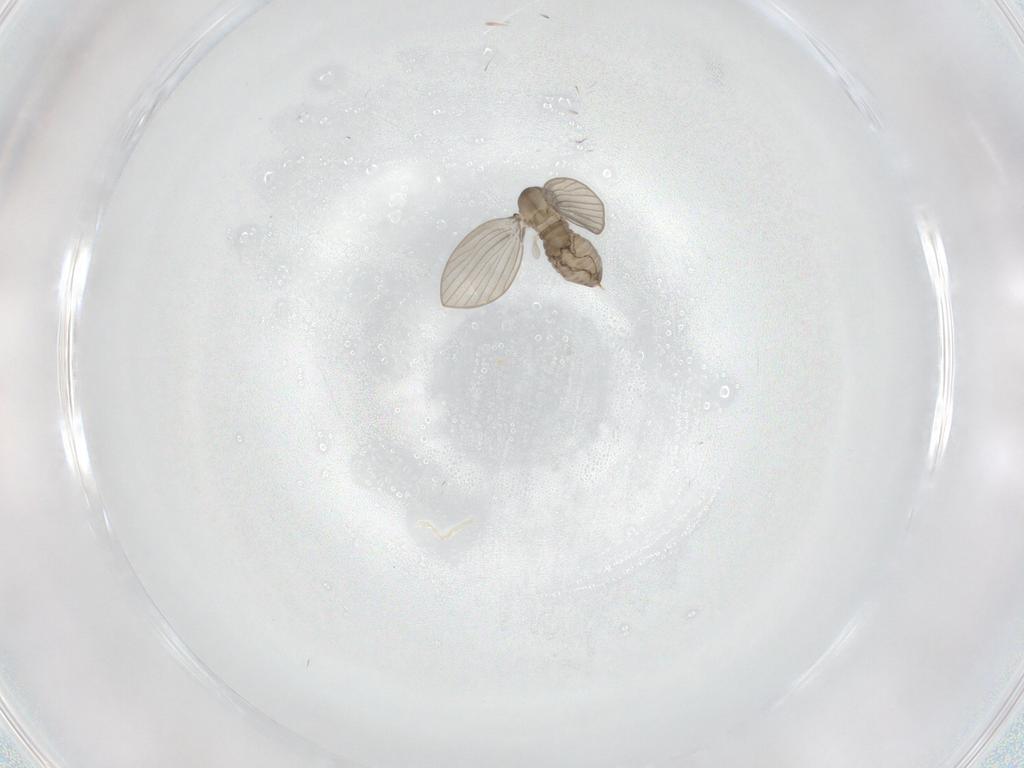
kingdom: Animalia
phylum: Arthropoda
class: Insecta
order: Diptera
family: Psychodidae
